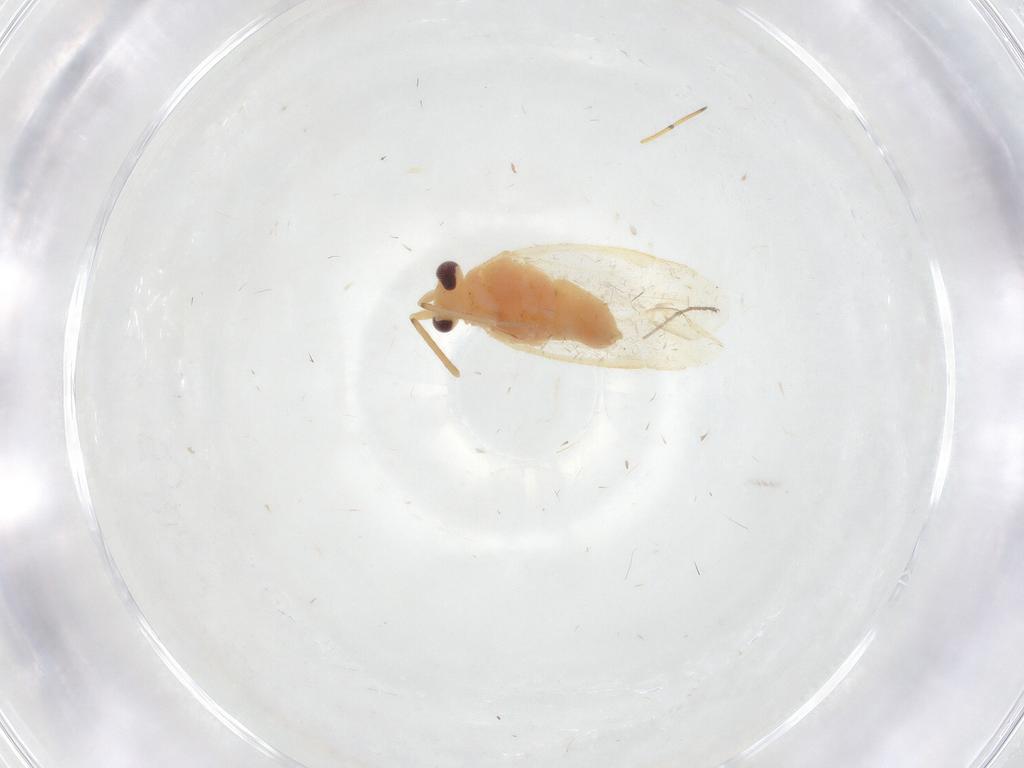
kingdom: Animalia
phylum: Arthropoda
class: Insecta
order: Hemiptera
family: Miridae
